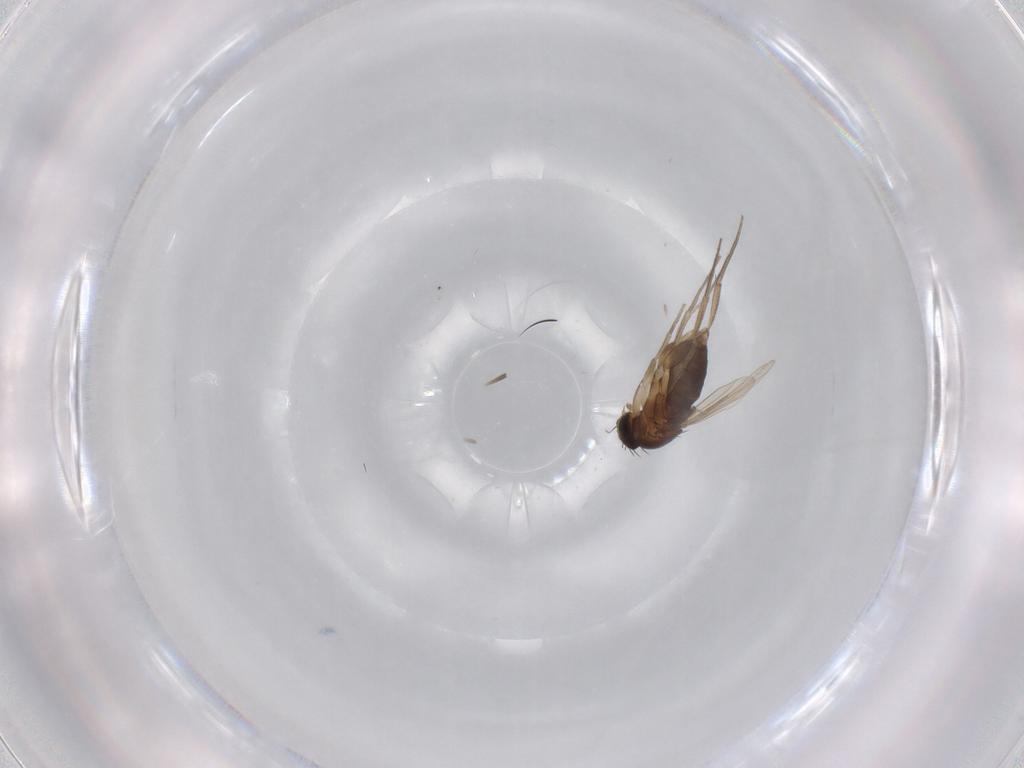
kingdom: Animalia
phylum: Arthropoda
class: Insecta
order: Diptera
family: Phoridae
